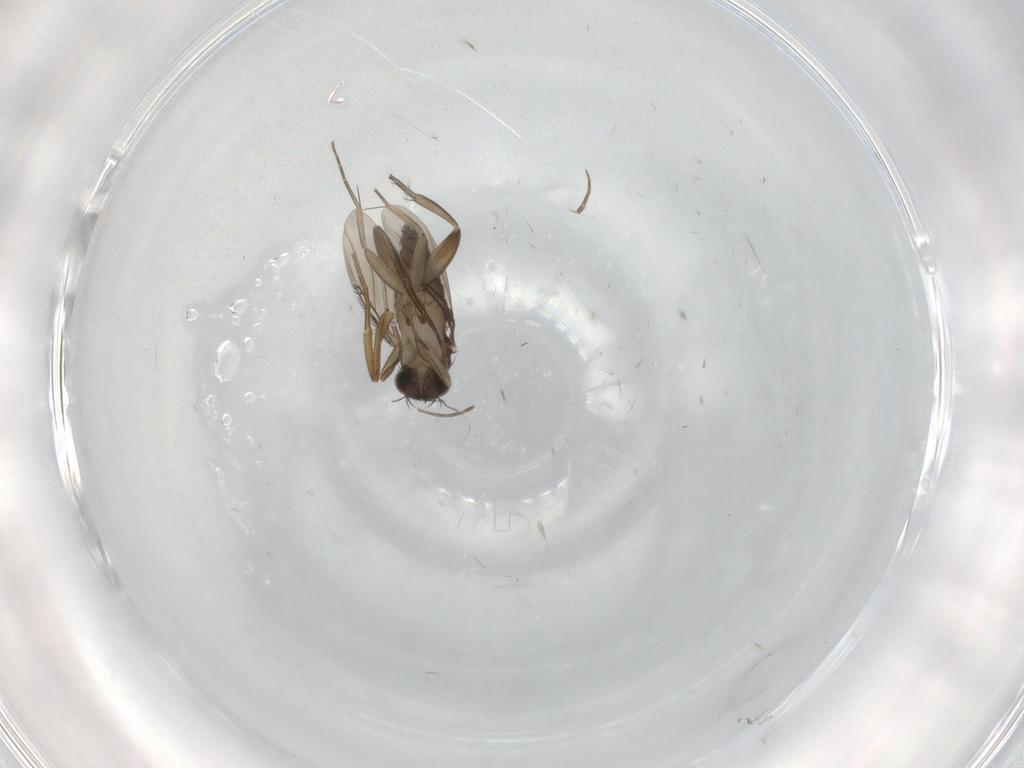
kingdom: Animalia
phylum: Arthropoda
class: Insecta
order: Diptera
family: Phoridae
